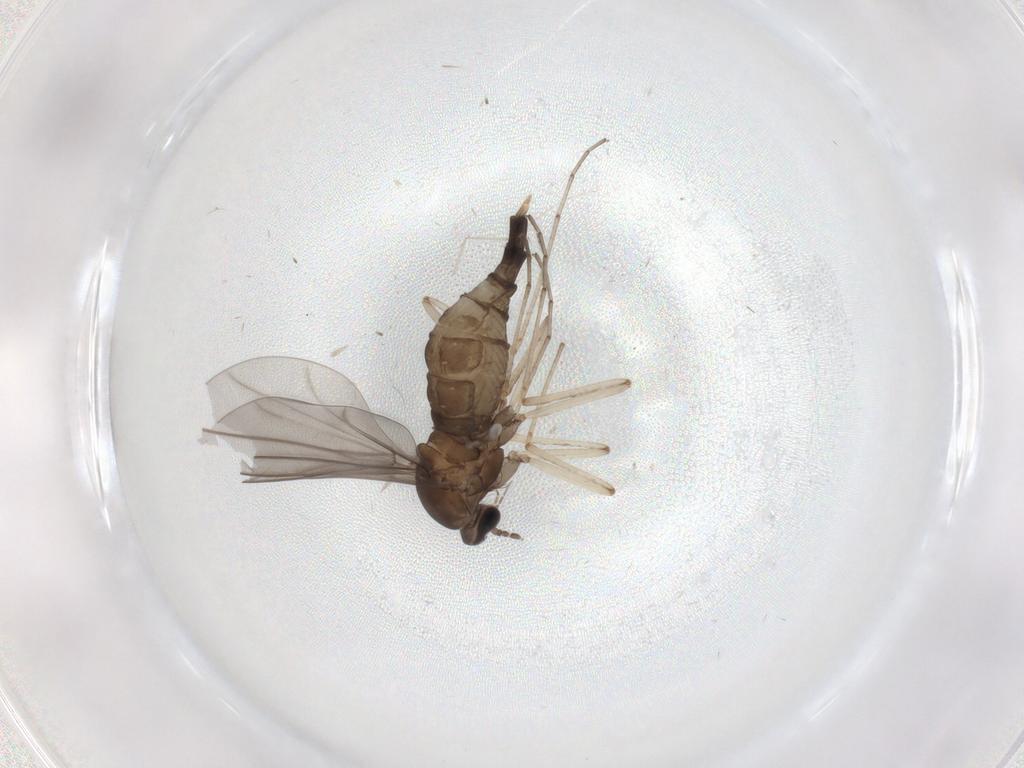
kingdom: Animalia
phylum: Arthropoda
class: Insecta
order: Diptera
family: Cecidomyiidae
